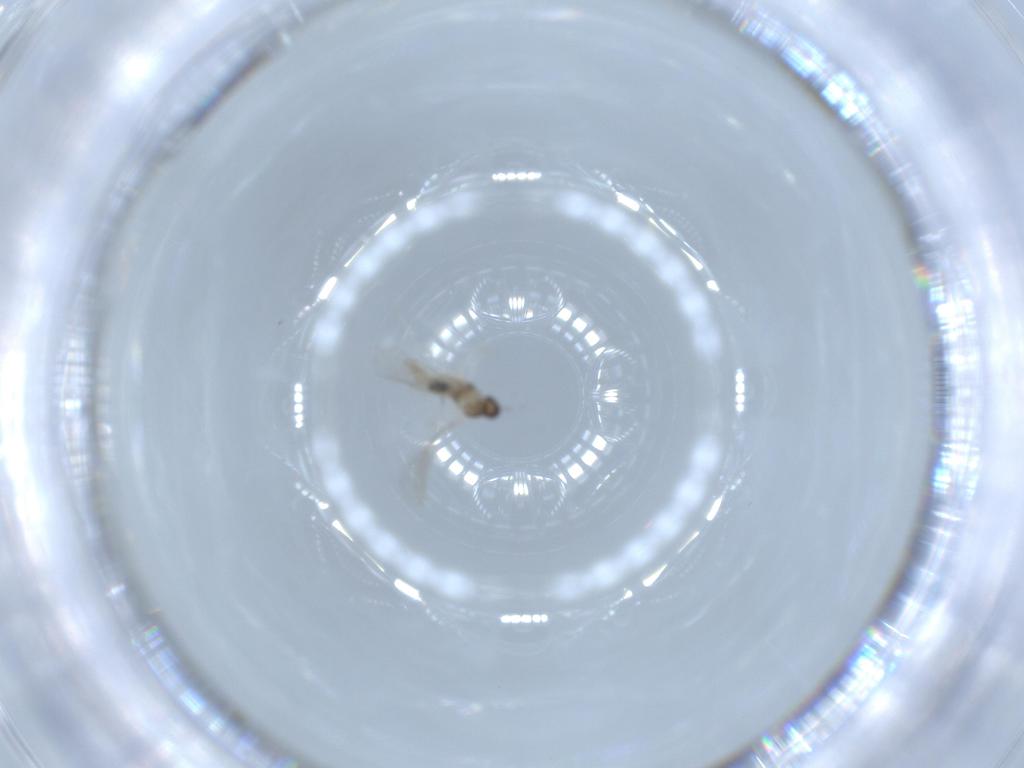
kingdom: Animalia
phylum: Arthropoda
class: Insecta
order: Diptera
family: Cecidomyiidae
